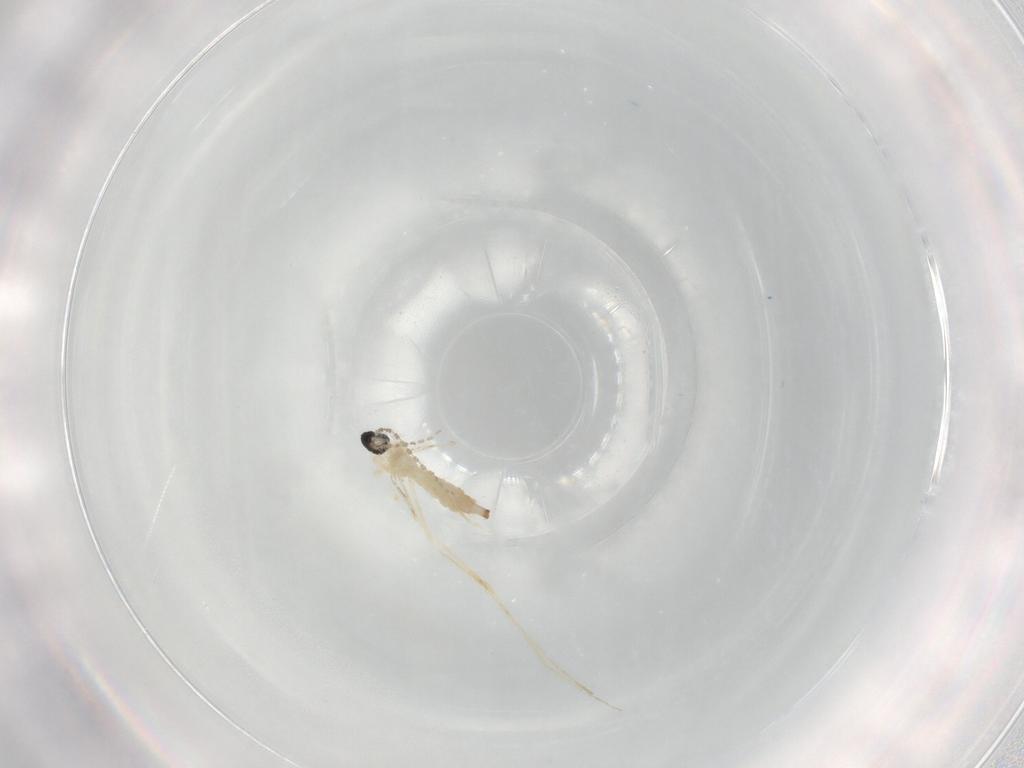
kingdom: Animalia
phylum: Arthropoda
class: Insecta
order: Diptera
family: Cecidomyiidae
